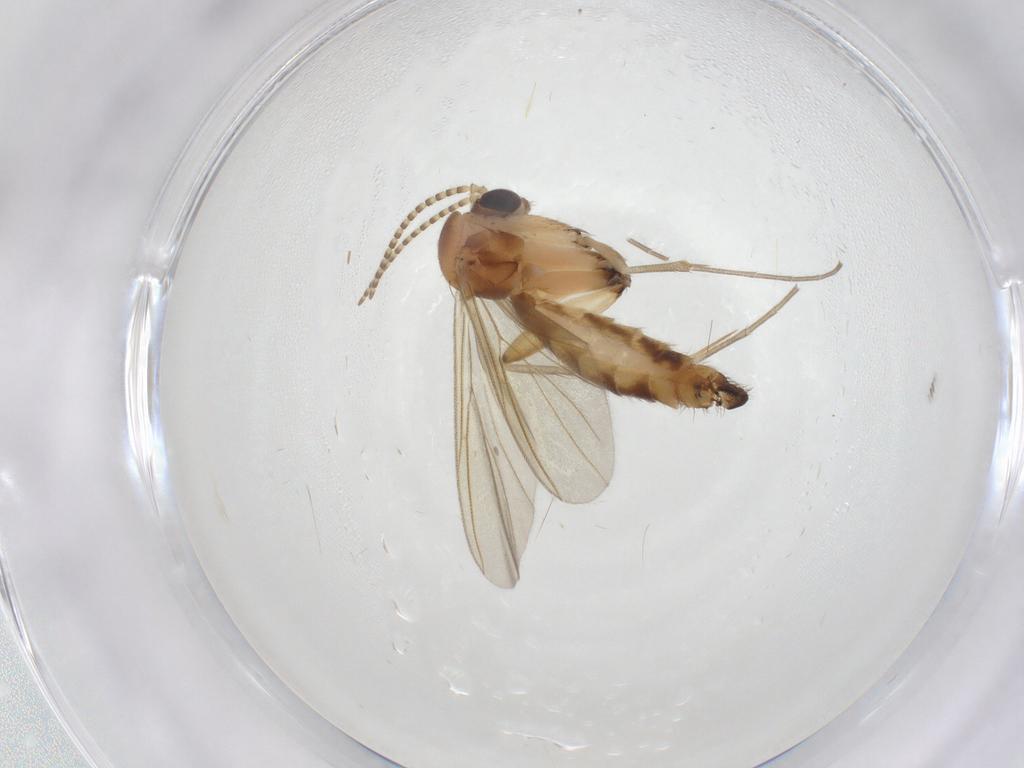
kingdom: Animalia
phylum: Arthropoda
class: Insecta
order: Diptera
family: Mycetophilidae
